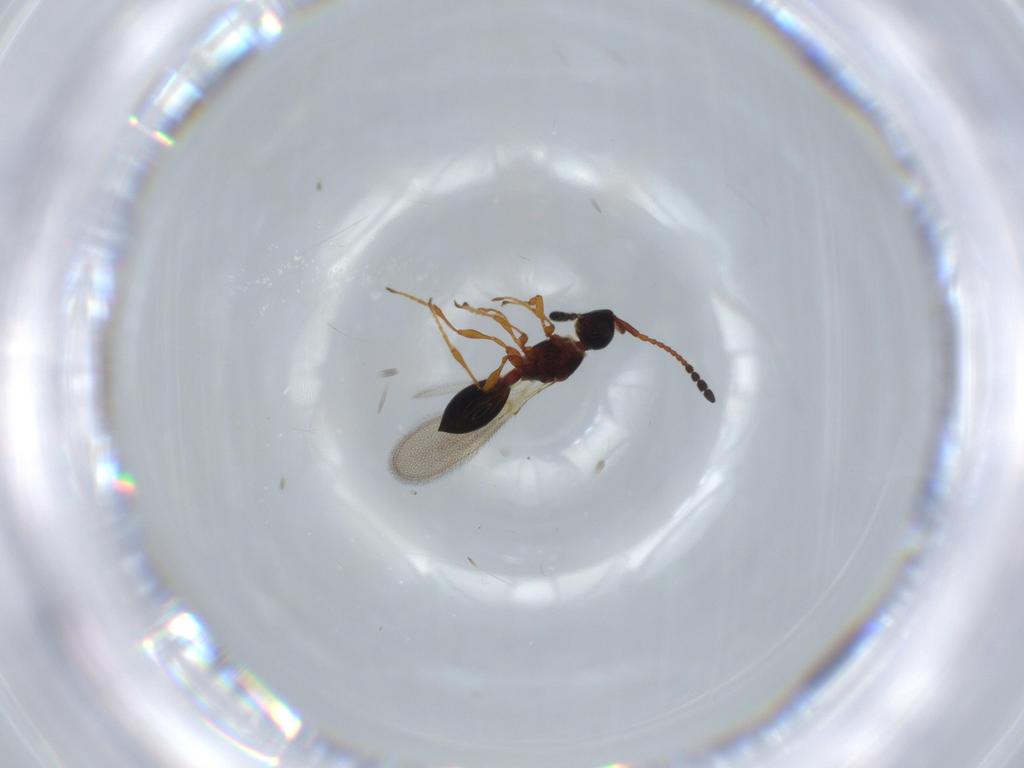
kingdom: Animalia
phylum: Arthropoda
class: Insecta
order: Hymenoptera
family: Diapriidae
